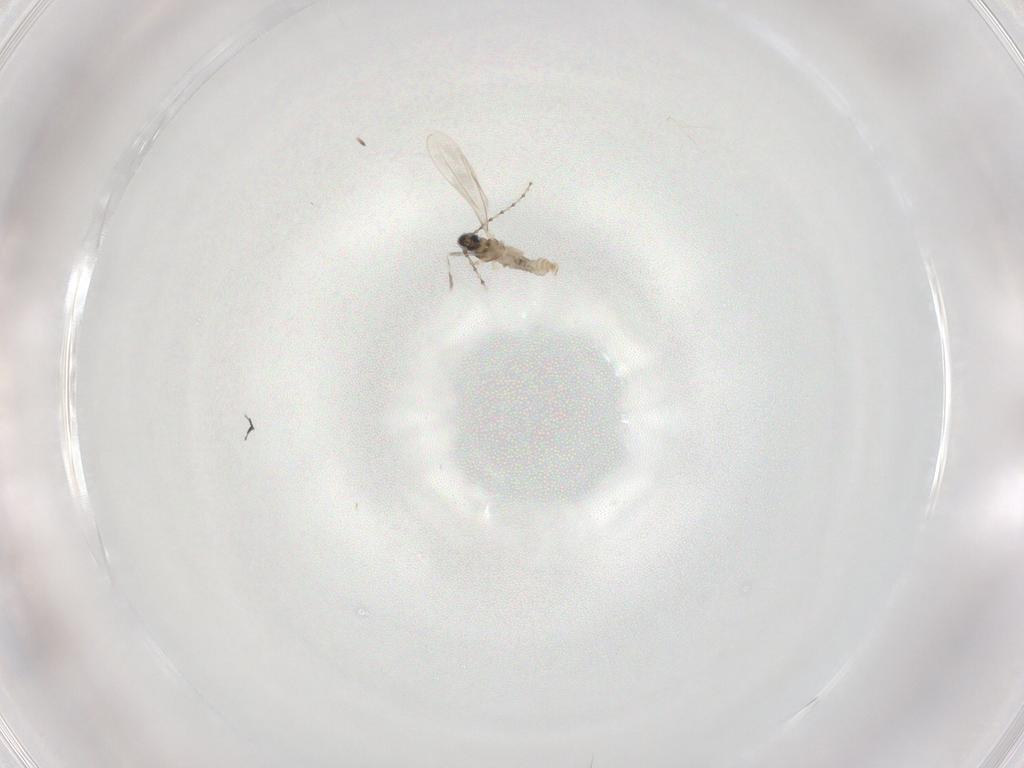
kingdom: Animalia
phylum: Arthropoda
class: Insecta
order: Diptera
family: Cecidomyiidae
